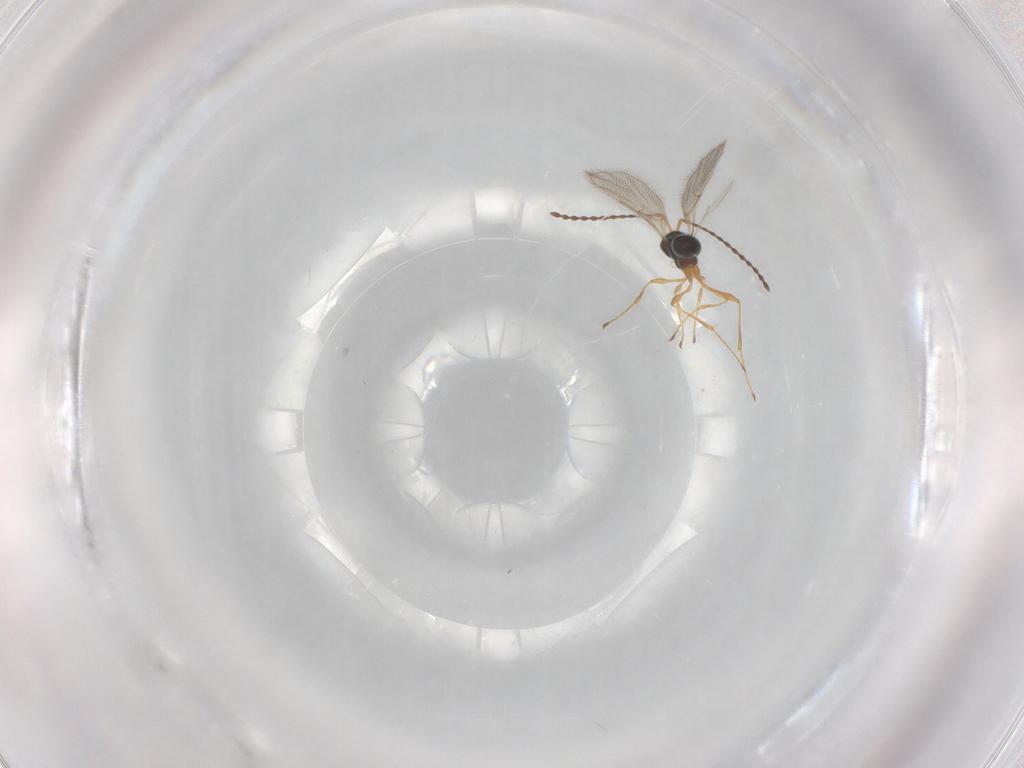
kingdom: Animalia
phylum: Arthropoda
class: Insecta
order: Hymenoptera
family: Diapriidae
